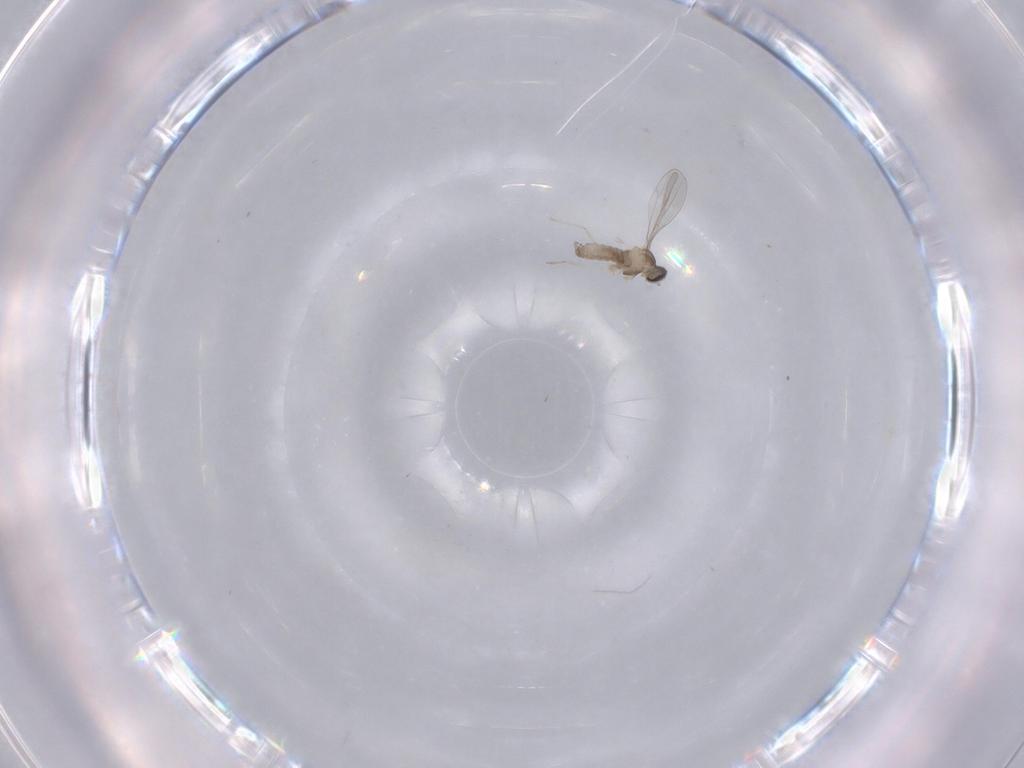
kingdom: Animalia
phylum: Arthropoda
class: Insecta
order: Diptera
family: Cecidomyiidae
